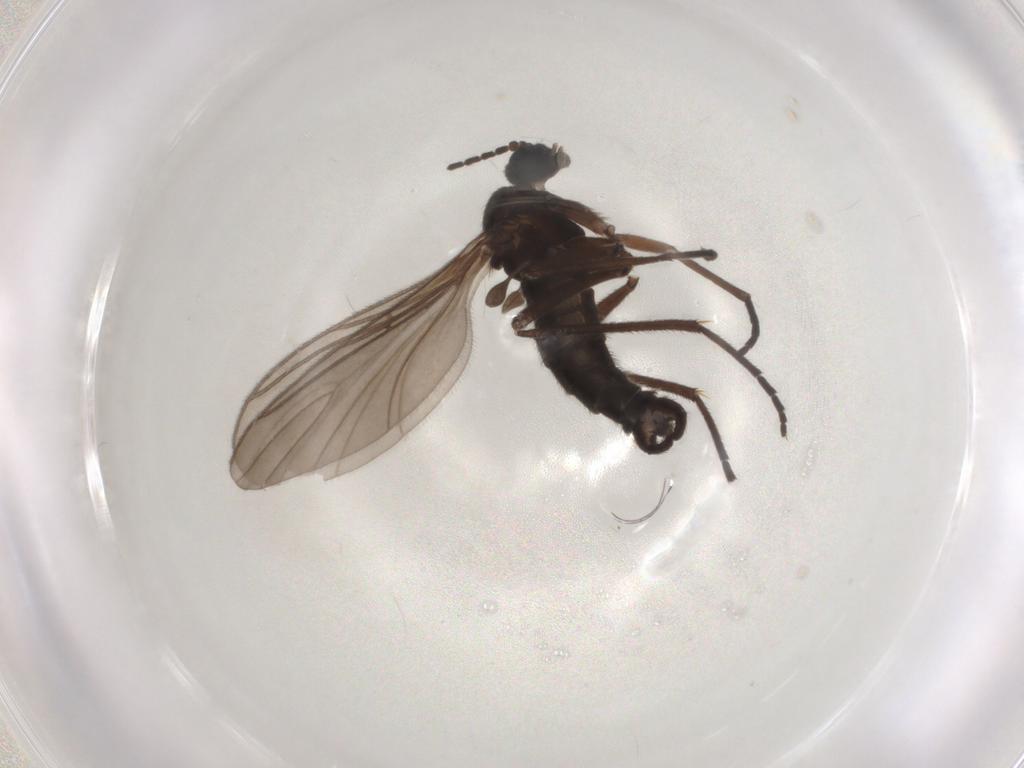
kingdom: Animalia
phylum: Arthropoda
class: Insecta
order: Diptera
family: Sciaridae
